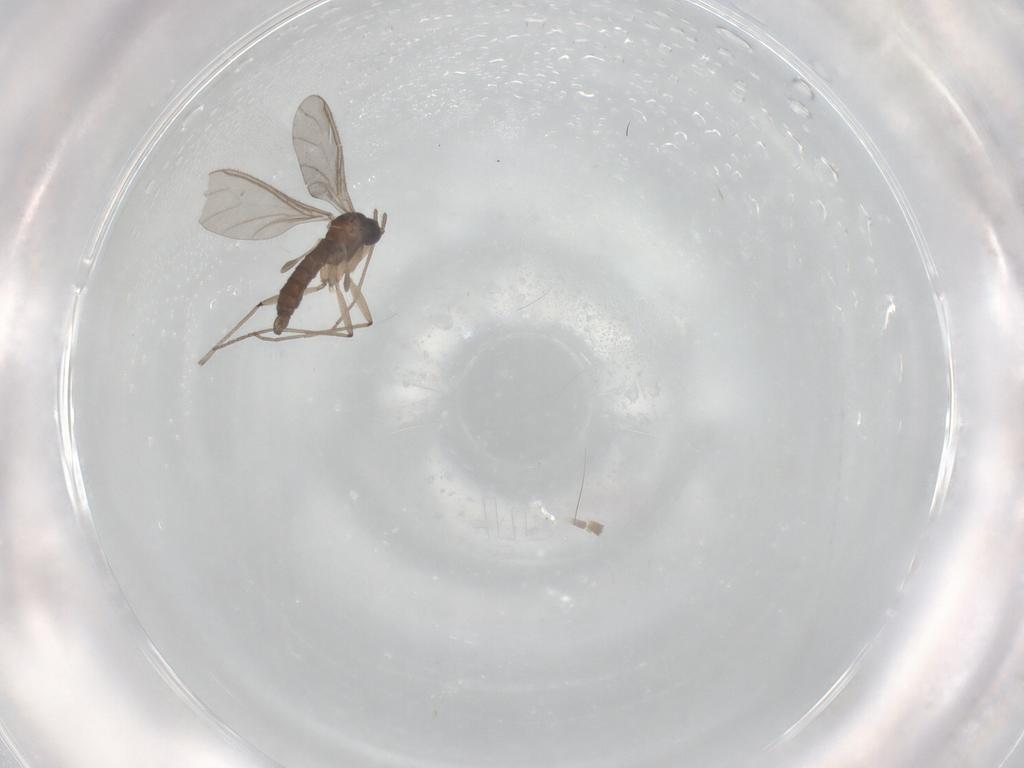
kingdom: Animalia
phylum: Arthropoda
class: Insecta
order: Diptera
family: Sciaridae
